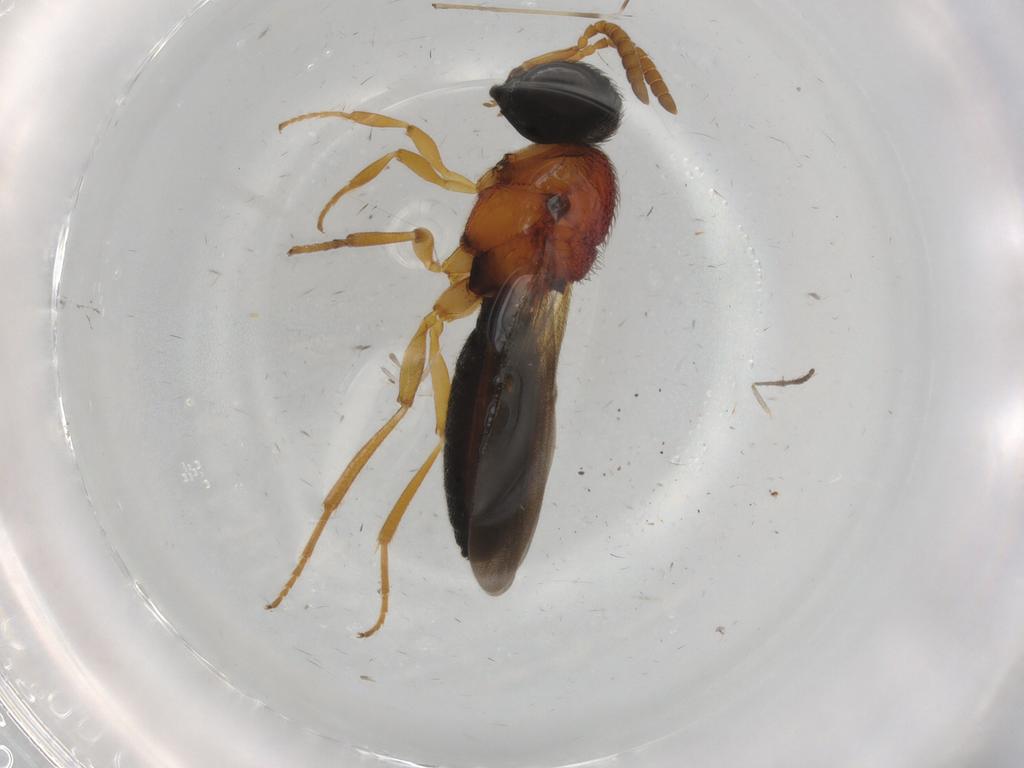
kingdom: Animalia
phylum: Arthropoda
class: Insecta
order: Hymenoptera
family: Scelionidae
